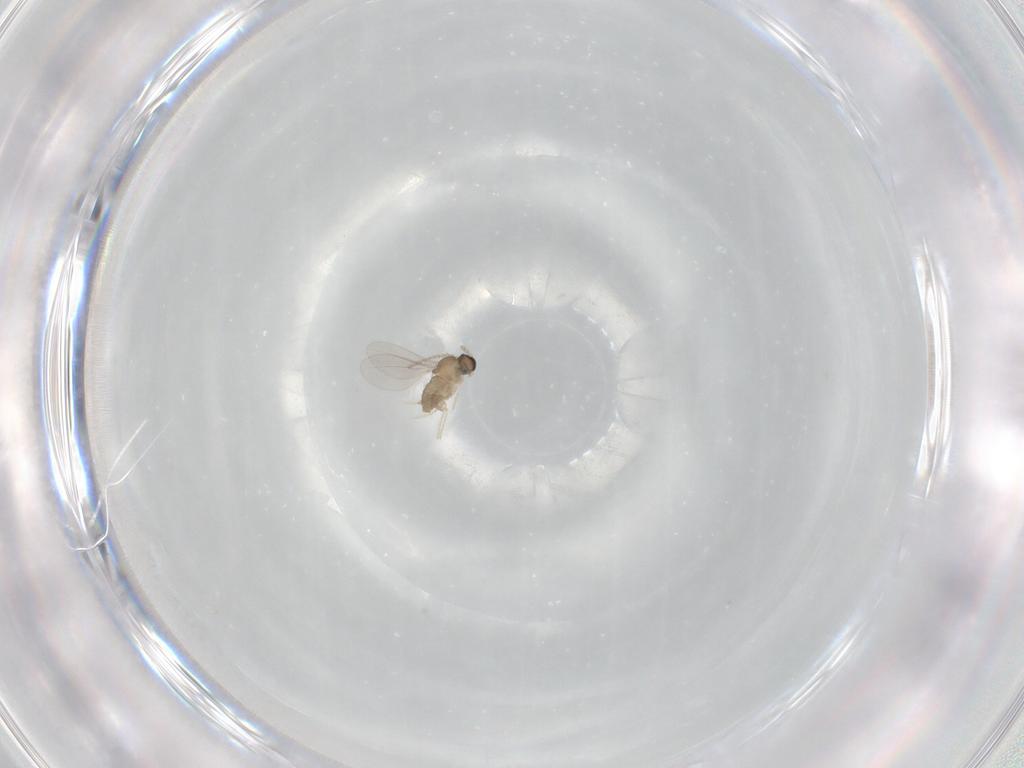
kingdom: Animalia
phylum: Arthropoda
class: Insecta
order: Diptera
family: Cecidomyiidae
